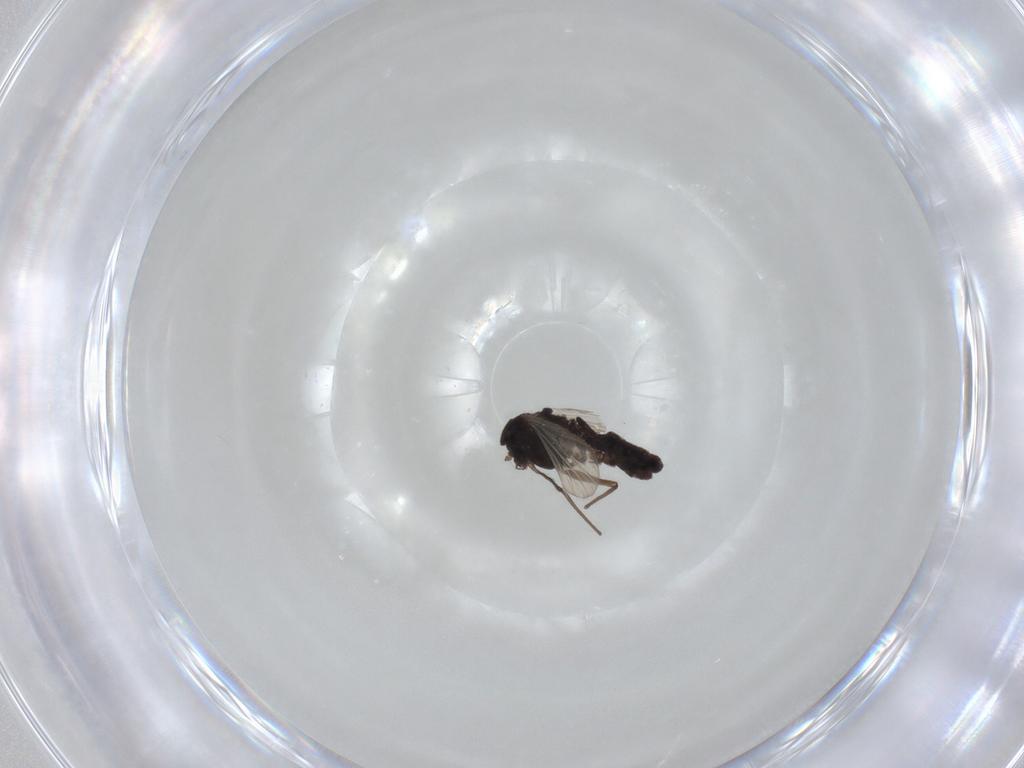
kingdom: Animalia
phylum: Arthropoda
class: Insecta
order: Diptera
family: Chironomidae
